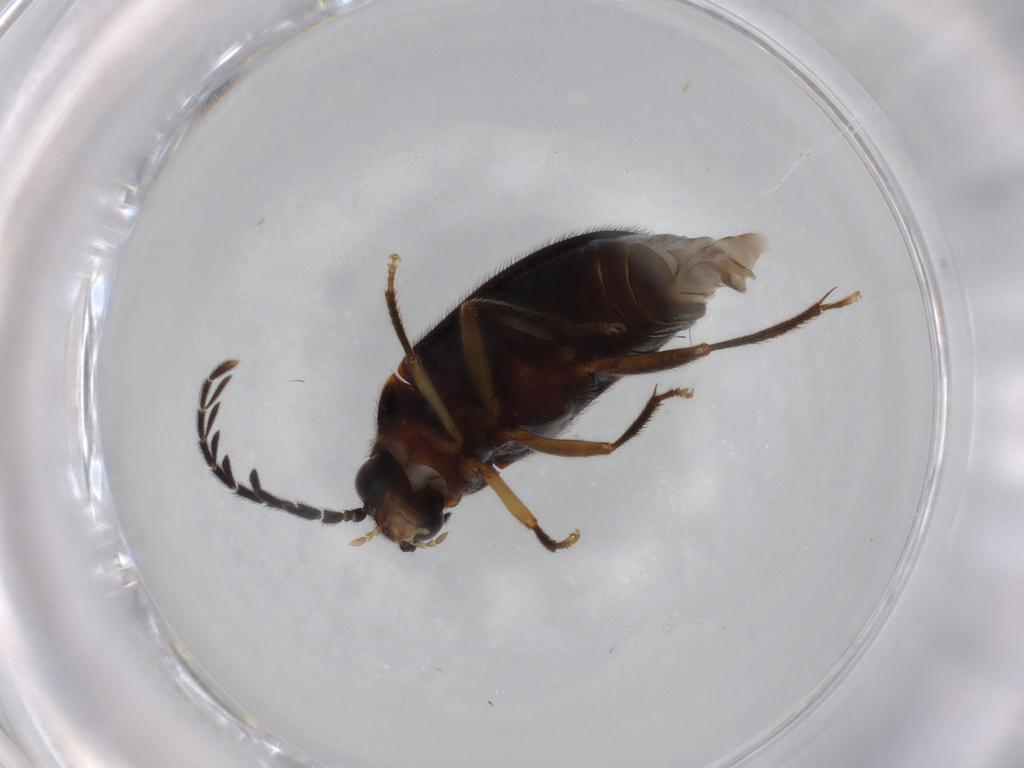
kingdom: Animalia
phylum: Arthropoda
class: Insecta
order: Coleoptera
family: Ptilodactylidae
